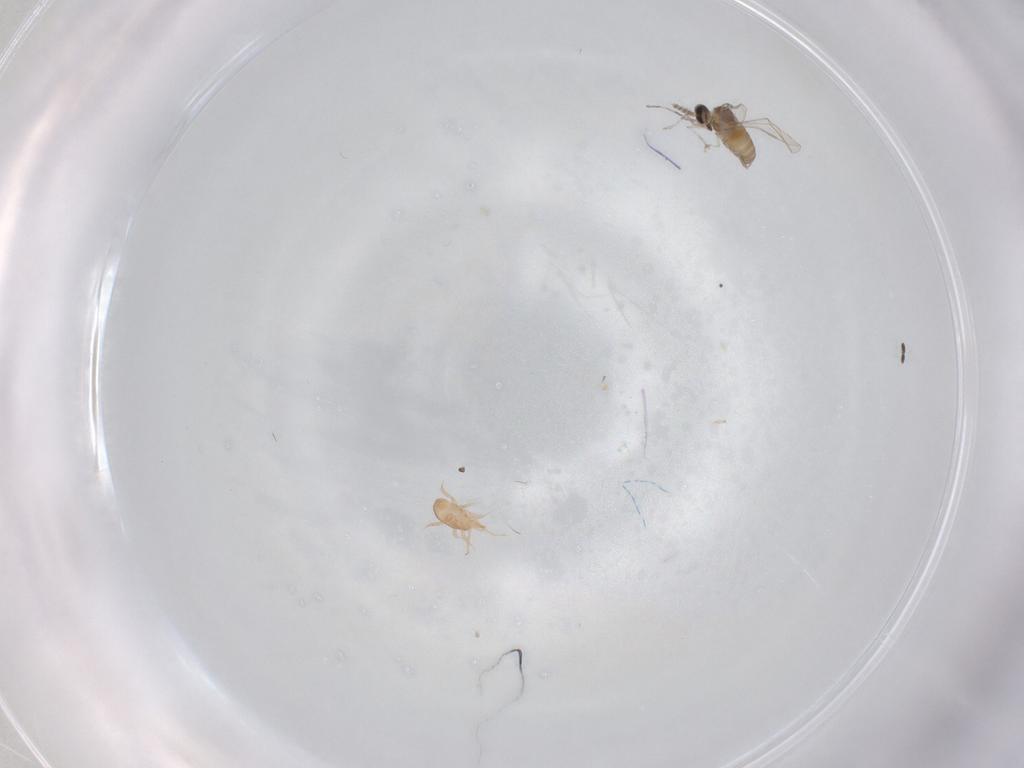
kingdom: Animalia
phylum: Arthropoda
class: Insecta
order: Diptera
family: Cecidomyiidae
